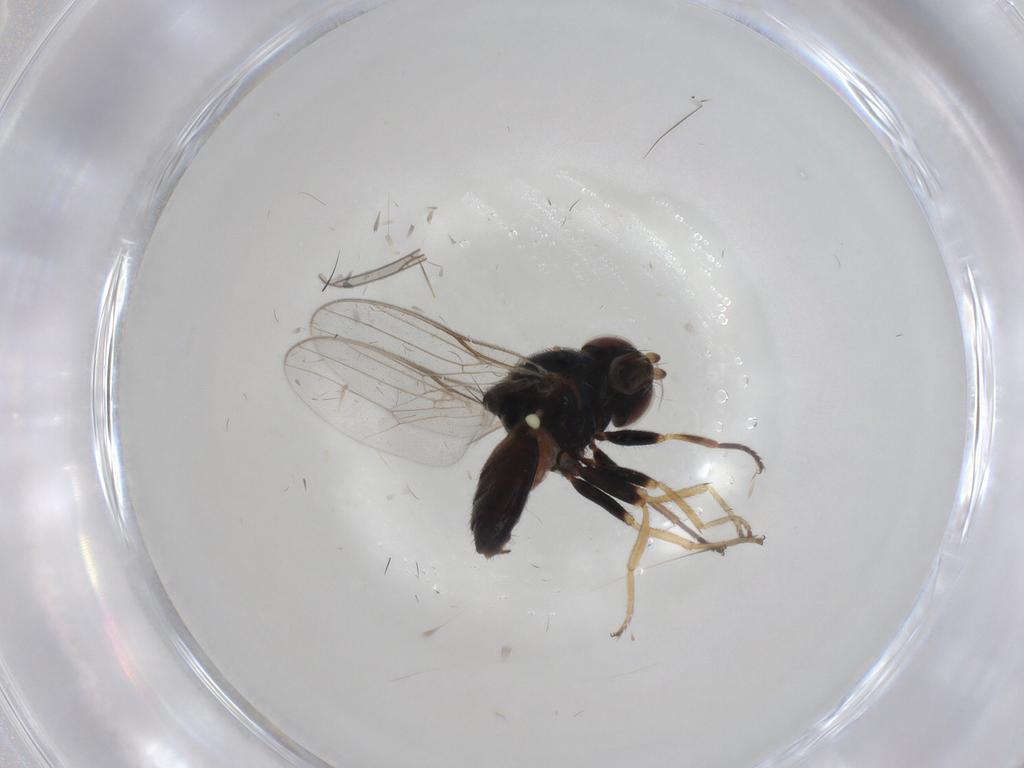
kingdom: Animalia
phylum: Arthropoda
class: Insecta
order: Diptera
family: Chloropidae
